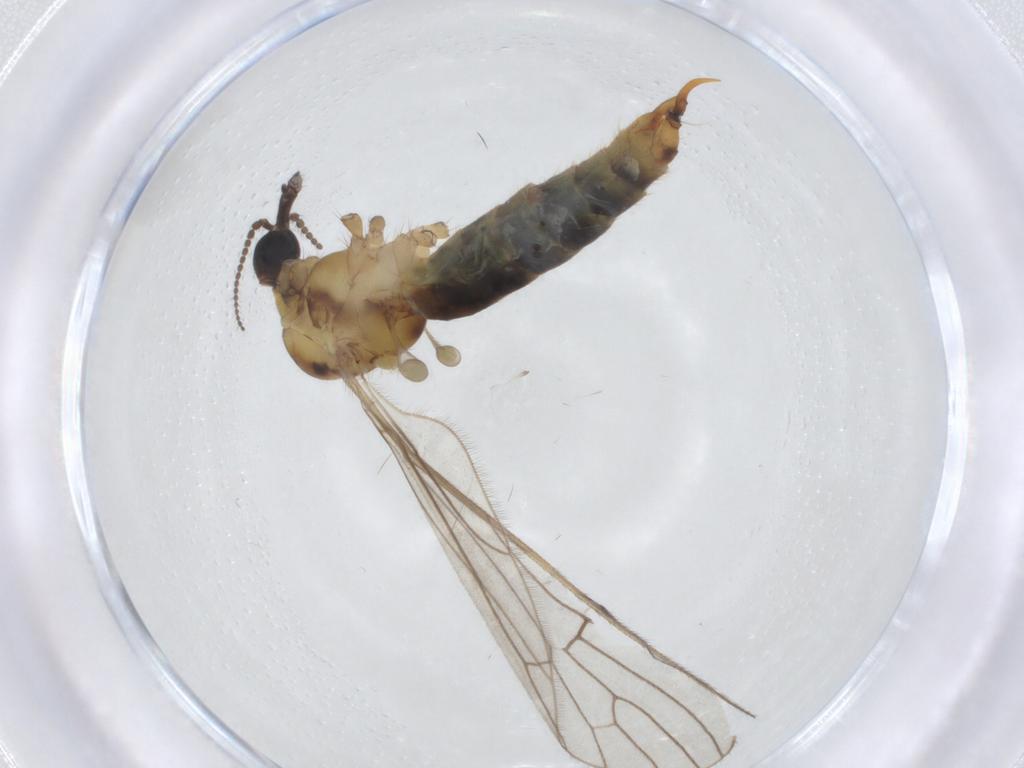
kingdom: Animalia
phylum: Arthropoda
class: Insecta
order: Diptera
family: Limoniidae
